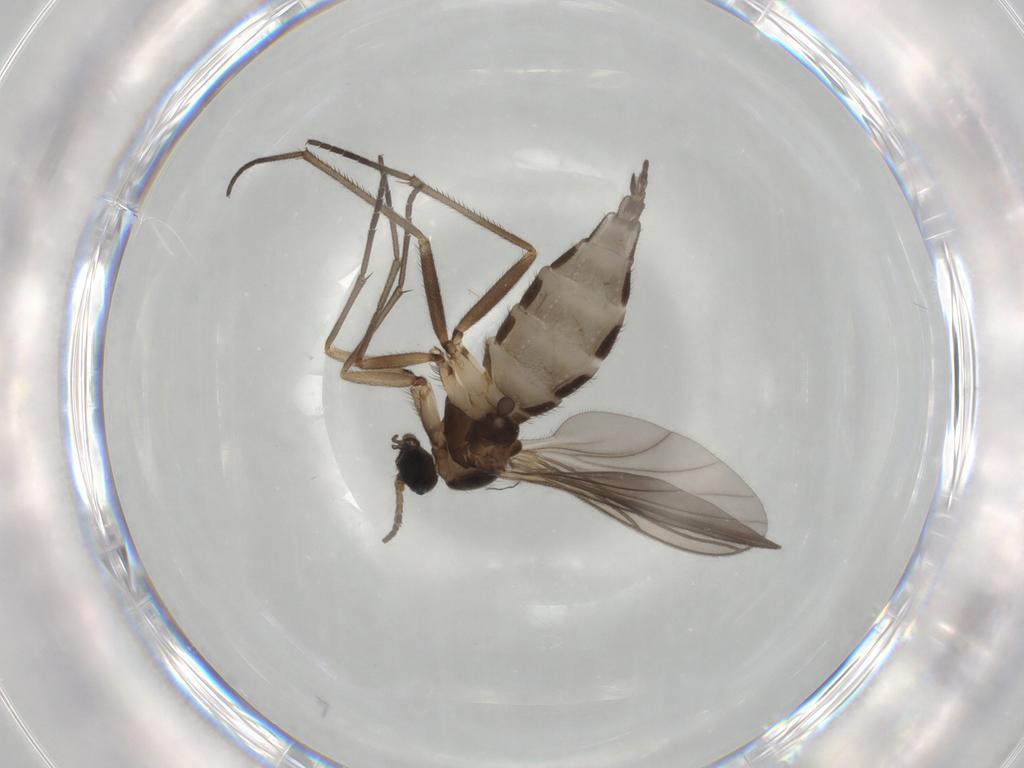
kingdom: Animalia
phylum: Arthropoda
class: Insecta
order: Diptera
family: Sciaridae
